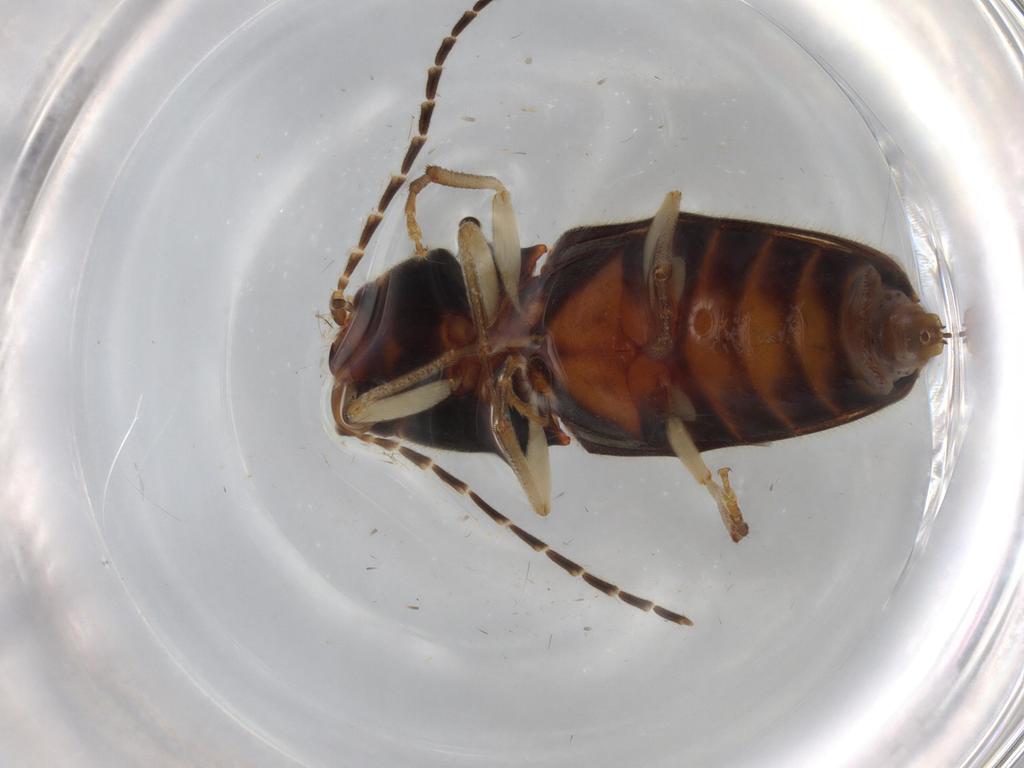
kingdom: Animalia
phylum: Arthropoda
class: Insecta
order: Coleoptera
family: Elateridae
